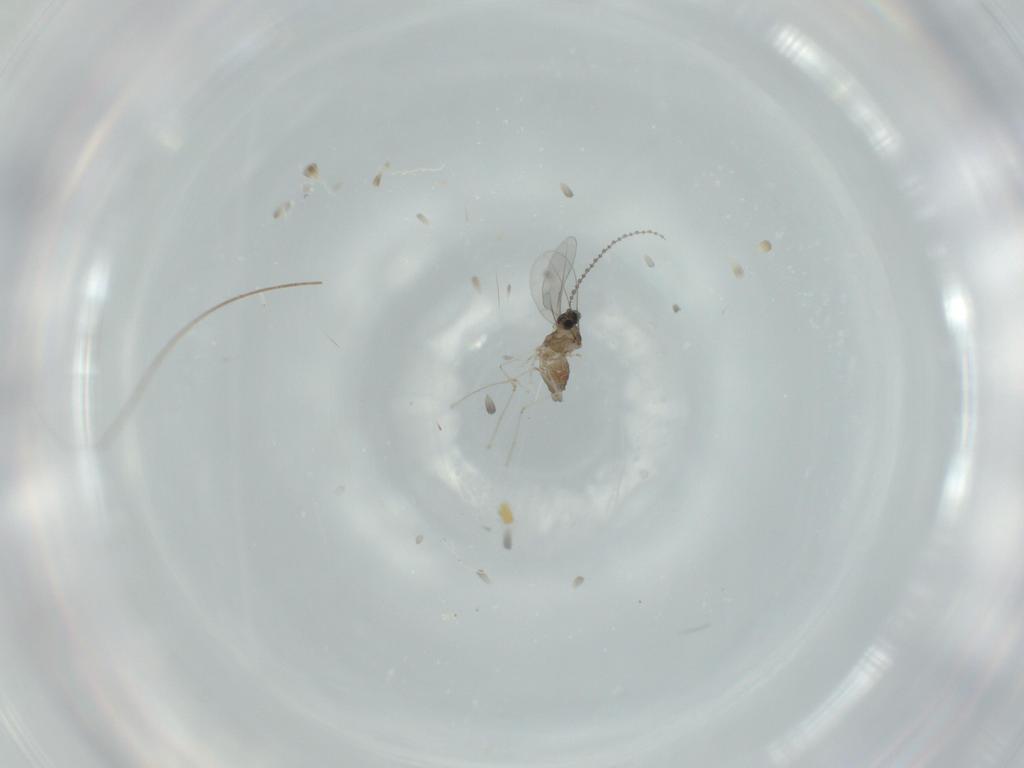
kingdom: Animalia
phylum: Arthropoda
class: Insecta
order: Diptera
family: Cecidomyiidae
